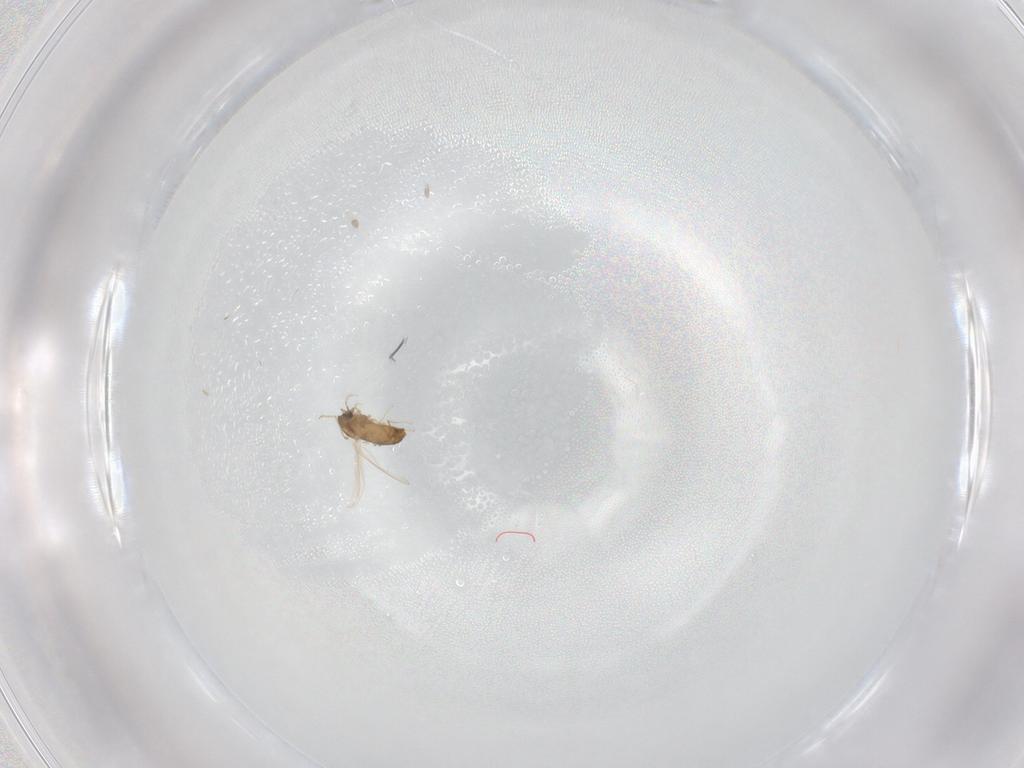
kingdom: Animalia
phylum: Arthropoda
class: Insecta
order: Diptera
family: Chironomidae
